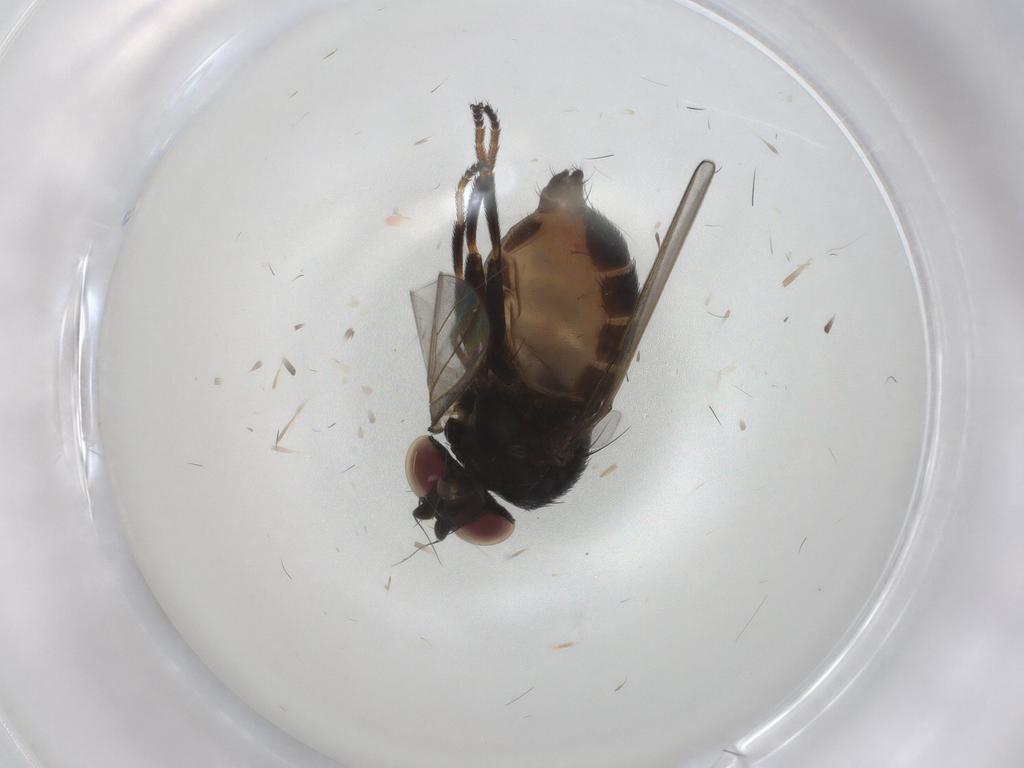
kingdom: Animalia
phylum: Arthropoda
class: Insecta
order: Diptera
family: Milichiidae
